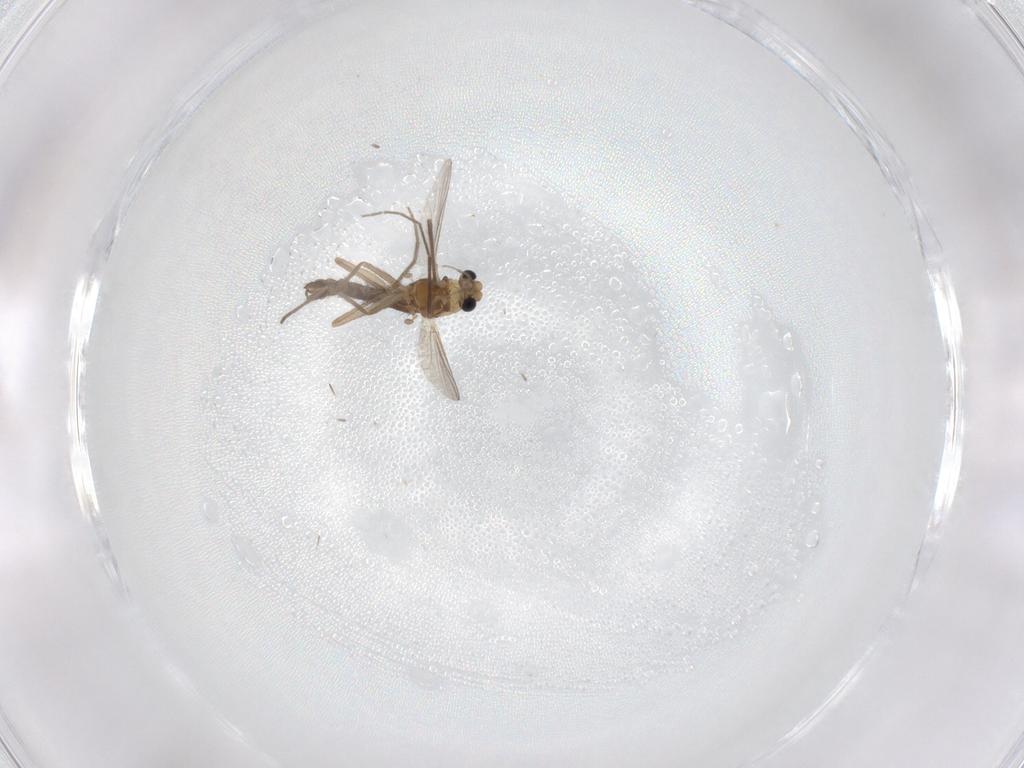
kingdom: Animalia
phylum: Arthropoda
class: Insecta
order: Diptera
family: Chironomidae
